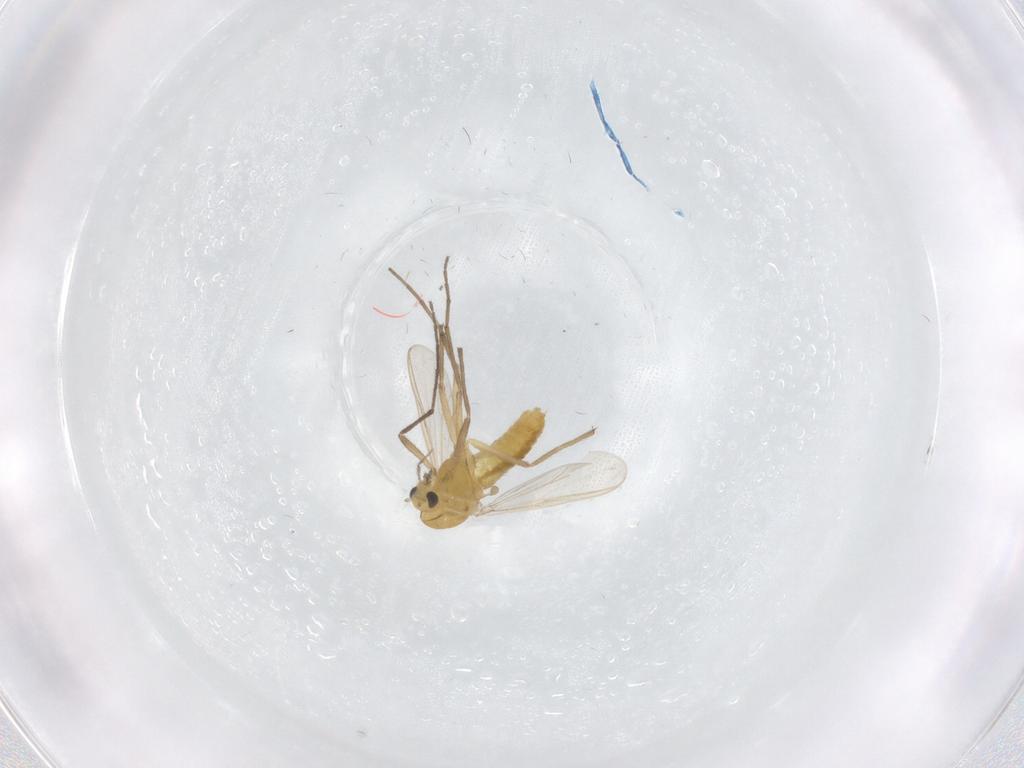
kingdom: Animalia
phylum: Arthropoda
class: Insecta
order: Diptera
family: Chironomidae
